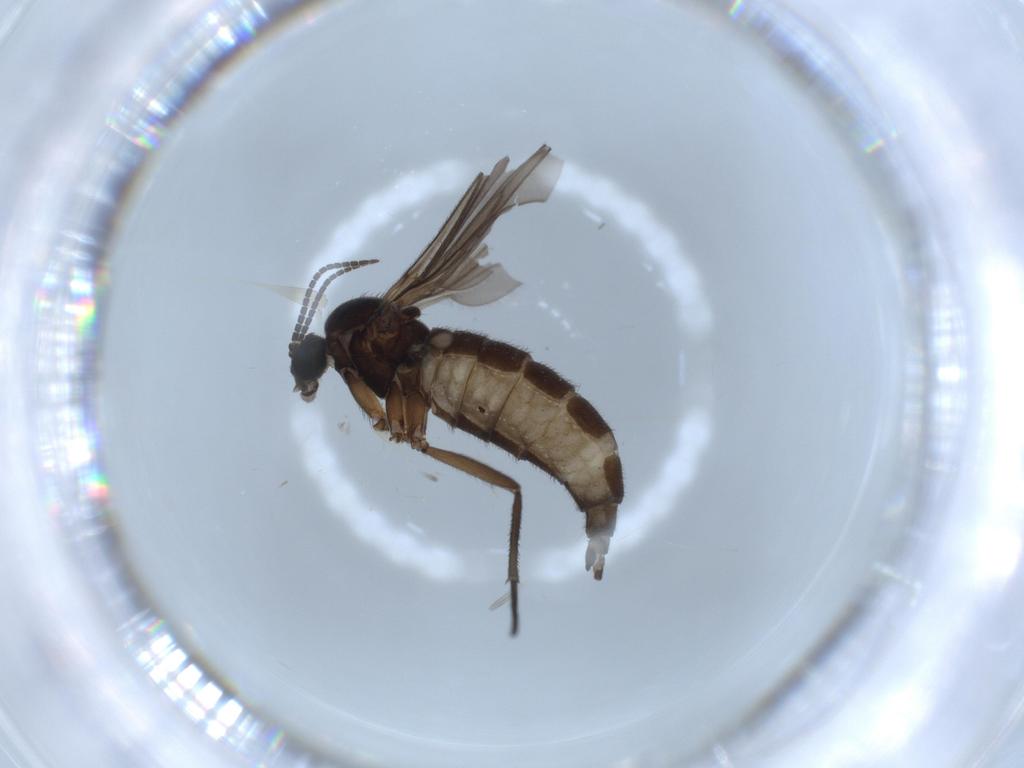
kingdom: Animalia
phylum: Arthropoda
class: Insecta
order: Diptera
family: Sciaridae
